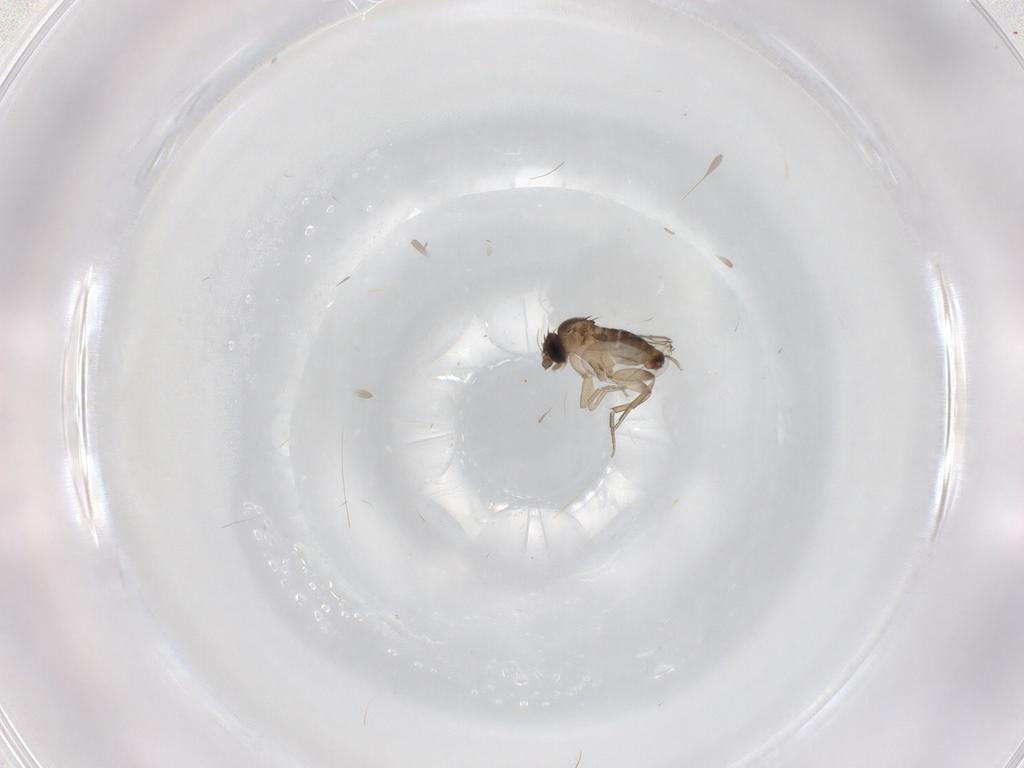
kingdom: Animalia
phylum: Arthropoda
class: Insecta
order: Diptera
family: Phoridae
